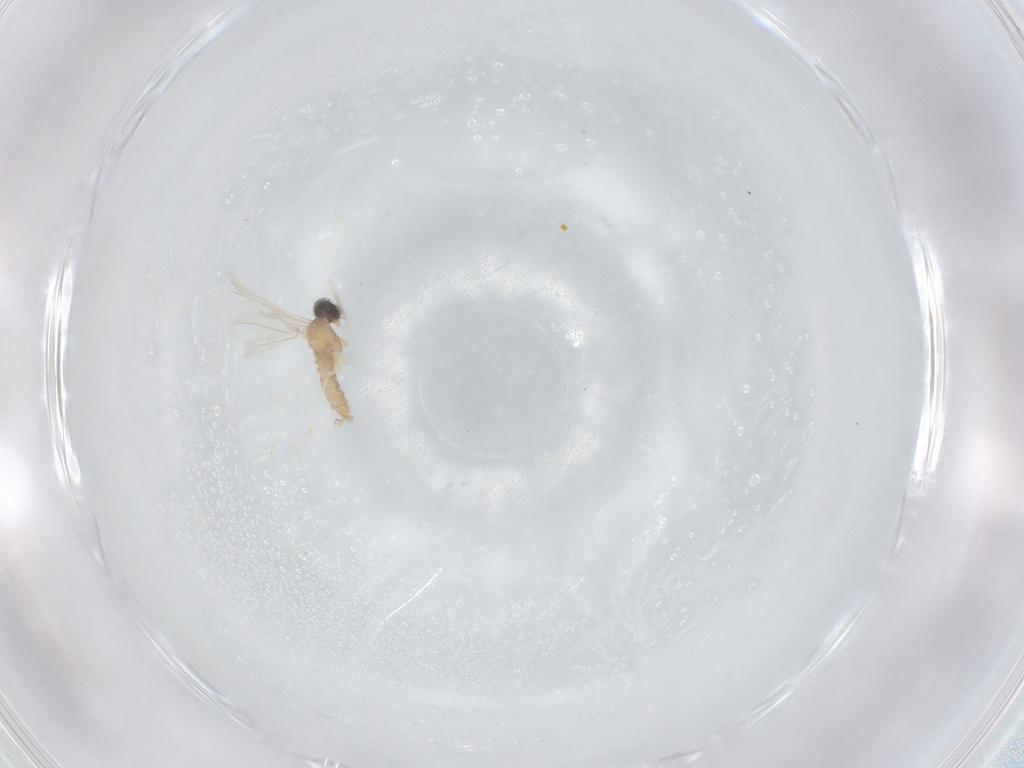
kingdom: Animalia
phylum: Arthropoda
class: Insecta
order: Diptera
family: Cecidomyiidae
